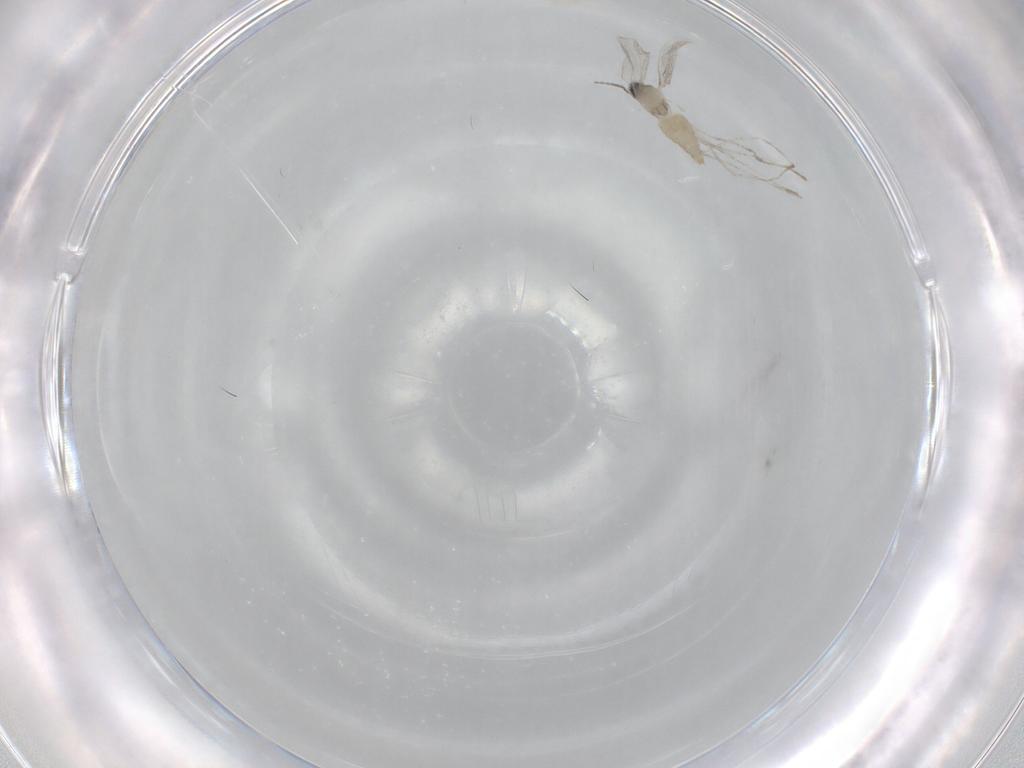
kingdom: Animalia
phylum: Arthropoda
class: Insecta
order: Diptera
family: Cecidomyiidae
